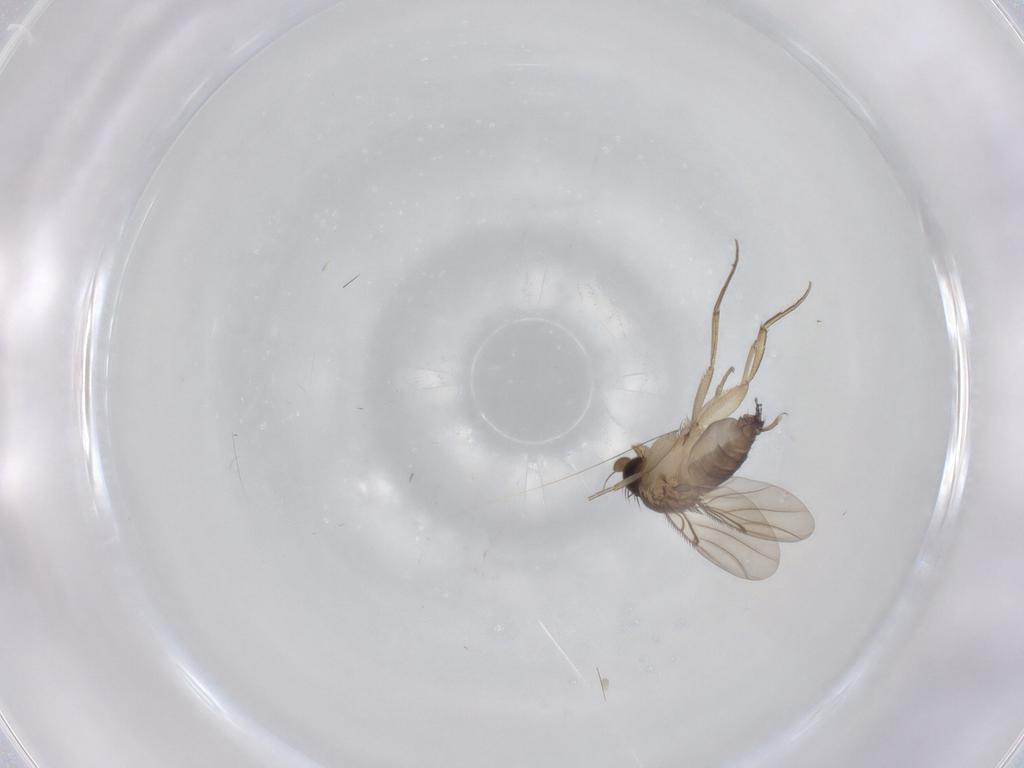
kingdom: Animalia
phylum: Arthropoda
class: Insecta
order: Diptera
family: Phoridae
